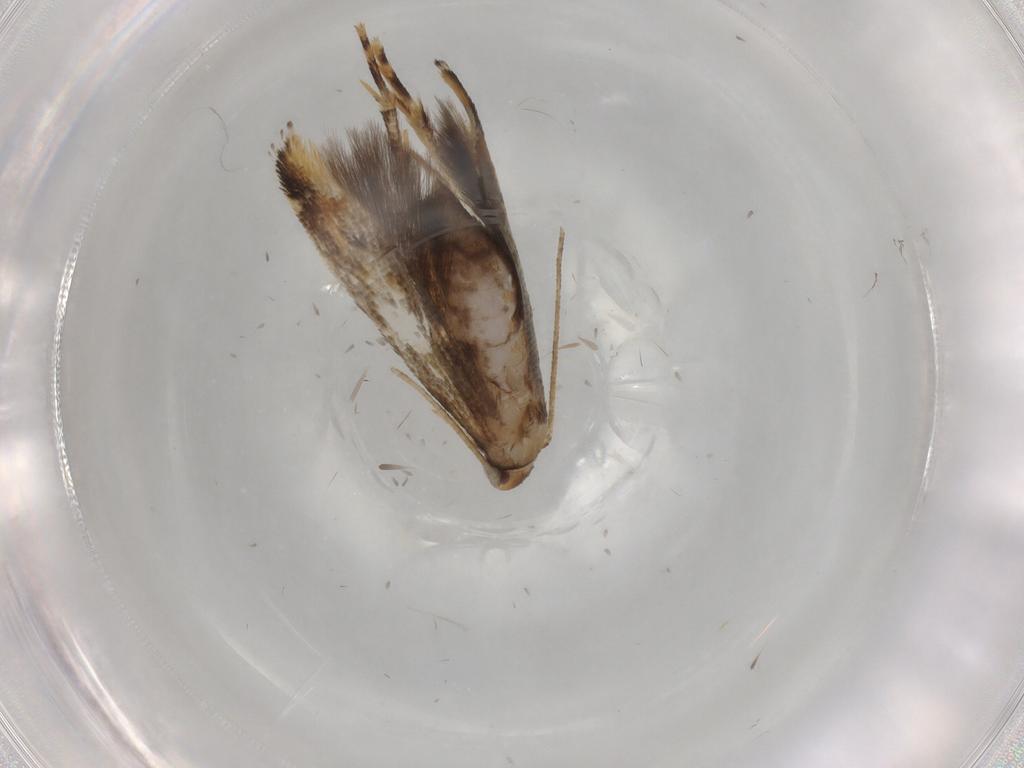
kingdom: Animalia
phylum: Arthropoda
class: Insecta
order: Lepidoptera
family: Momphidae
